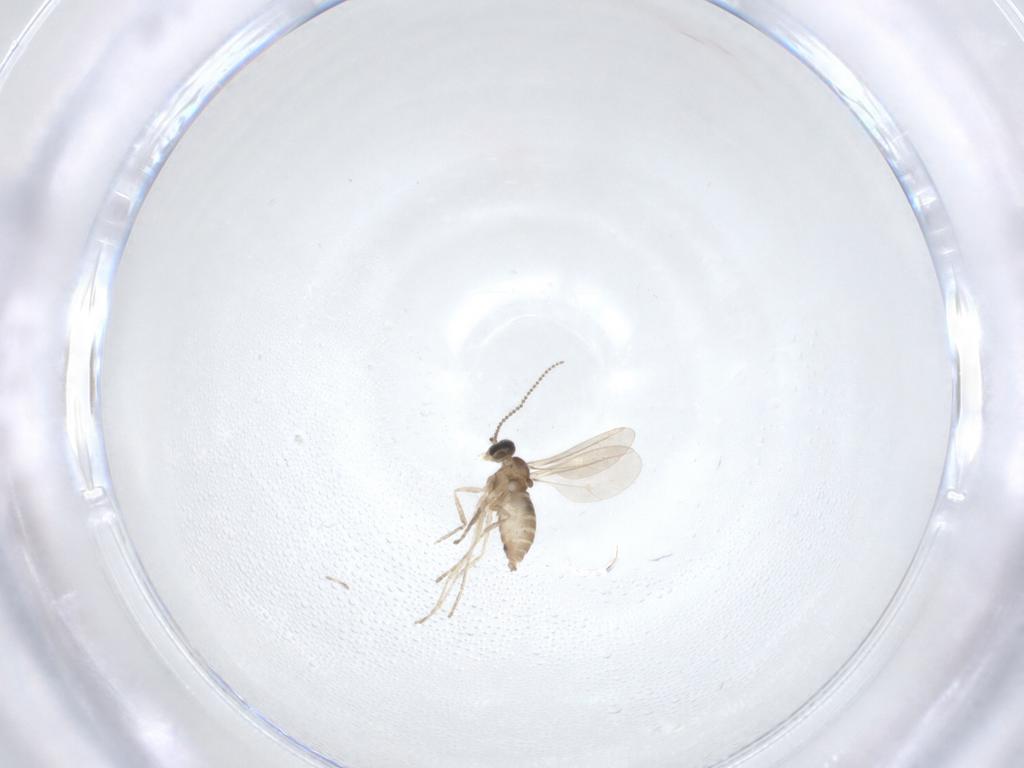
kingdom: Animalia
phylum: Arthropoda
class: Insecta
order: Diptera
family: Cecidomyiidae
